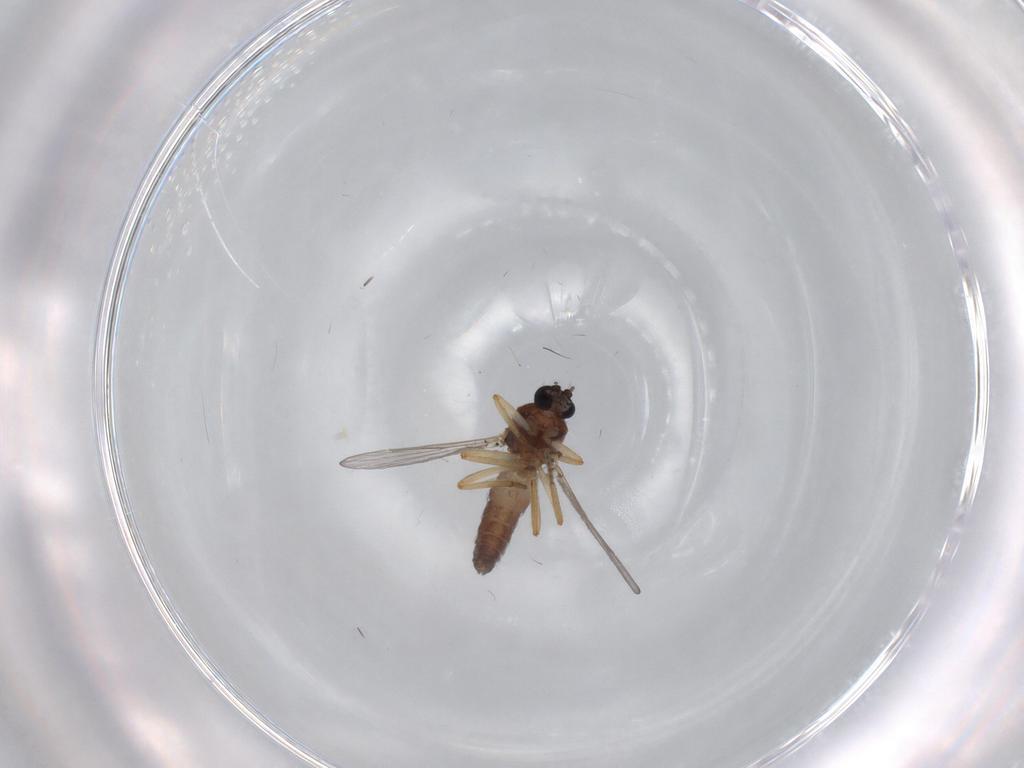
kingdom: Animalia
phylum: Arthropoda
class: Insecta
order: Diptera
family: Ceratopogonidae
